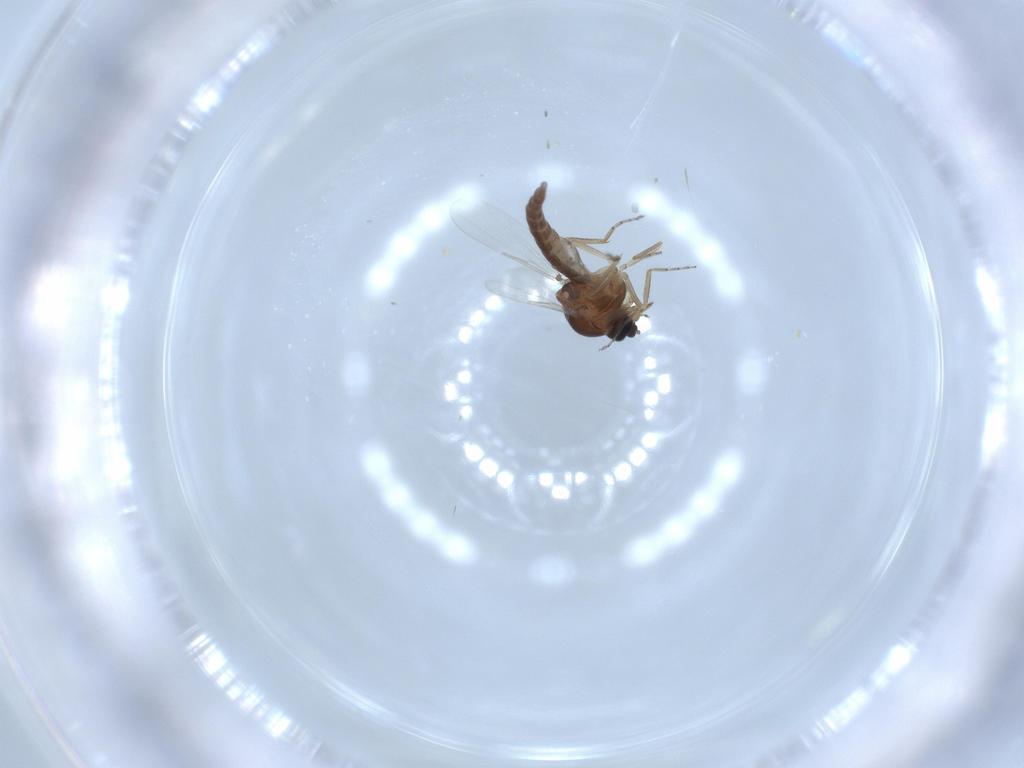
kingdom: Animalia
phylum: Arthropoda
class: Insecta
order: Diptera
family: Ceratopogonidae
